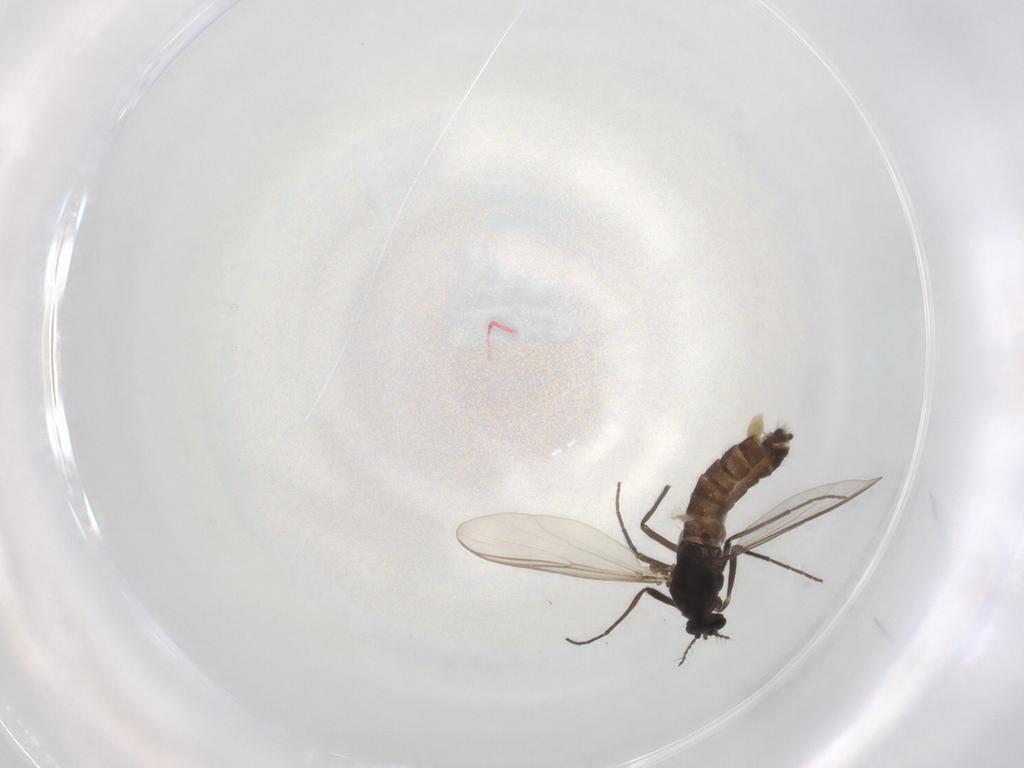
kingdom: Animalia
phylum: Arthropoda
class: Insecta
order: Diptera
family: Chironomidae
